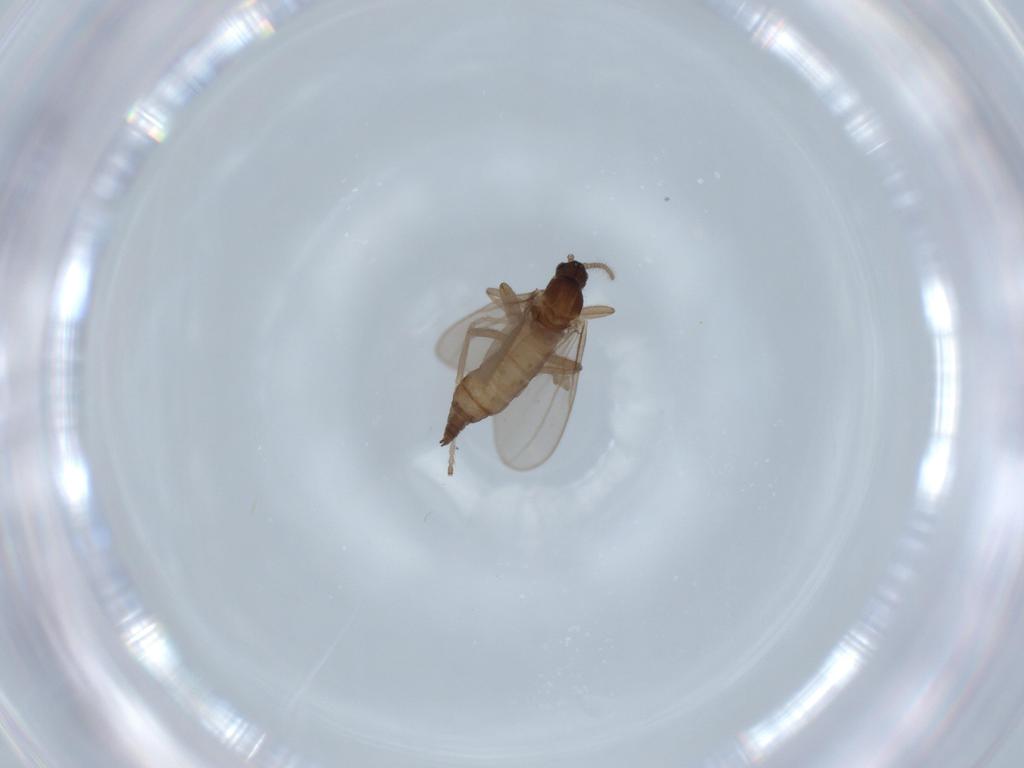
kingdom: Animalia
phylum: Arthropoda
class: Insecta
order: Diptera
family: Cecidomyiidae
